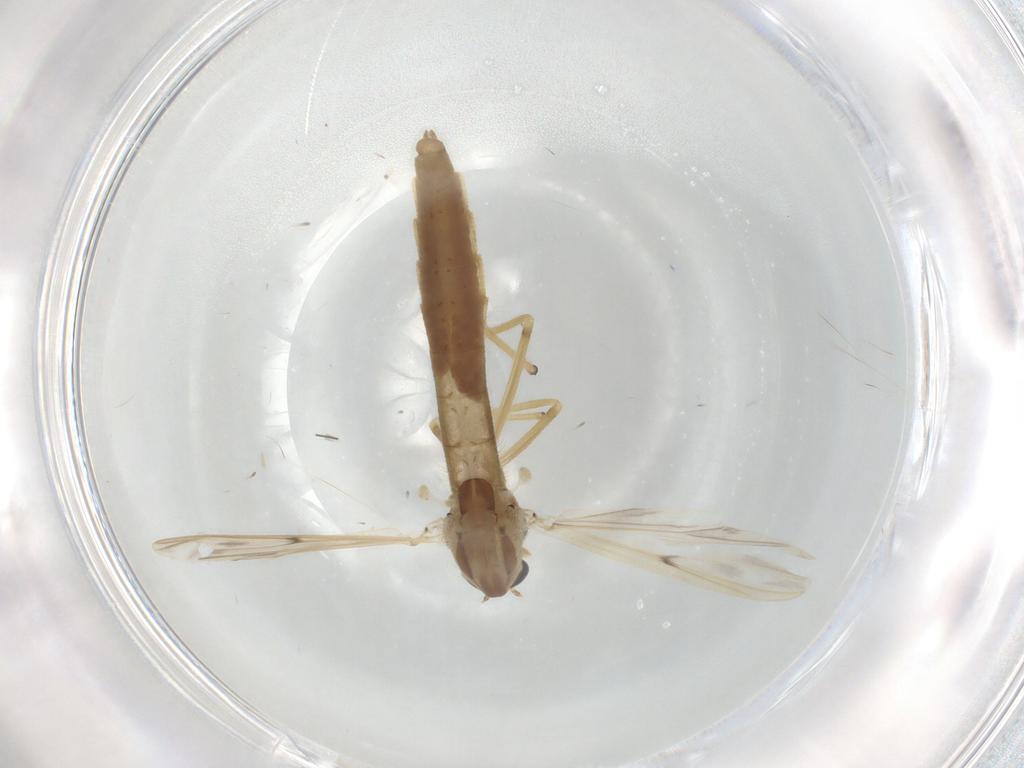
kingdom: Animalia
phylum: Arthropoda
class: Insecta
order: Diptera
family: Chironomidae
